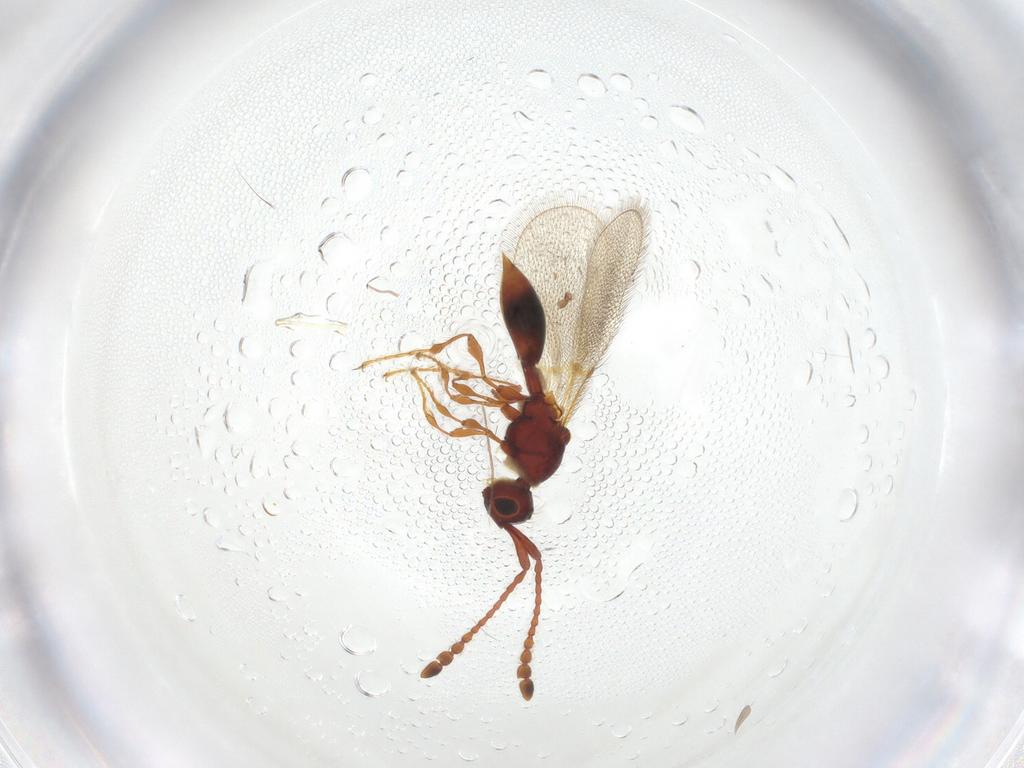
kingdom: Animalia
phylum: Arthropoda
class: Insecta
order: Hymenoptera
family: Diapriidae
